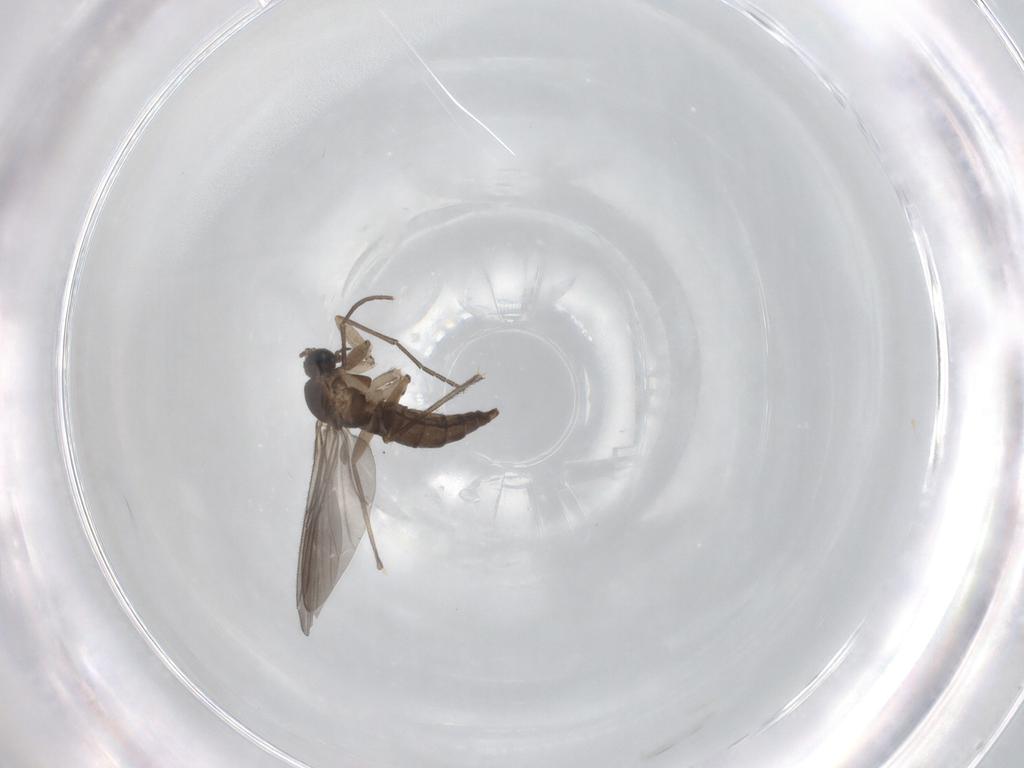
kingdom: Animalia
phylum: Arthropoda
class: Insecta
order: Diptera
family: Sciaridae
